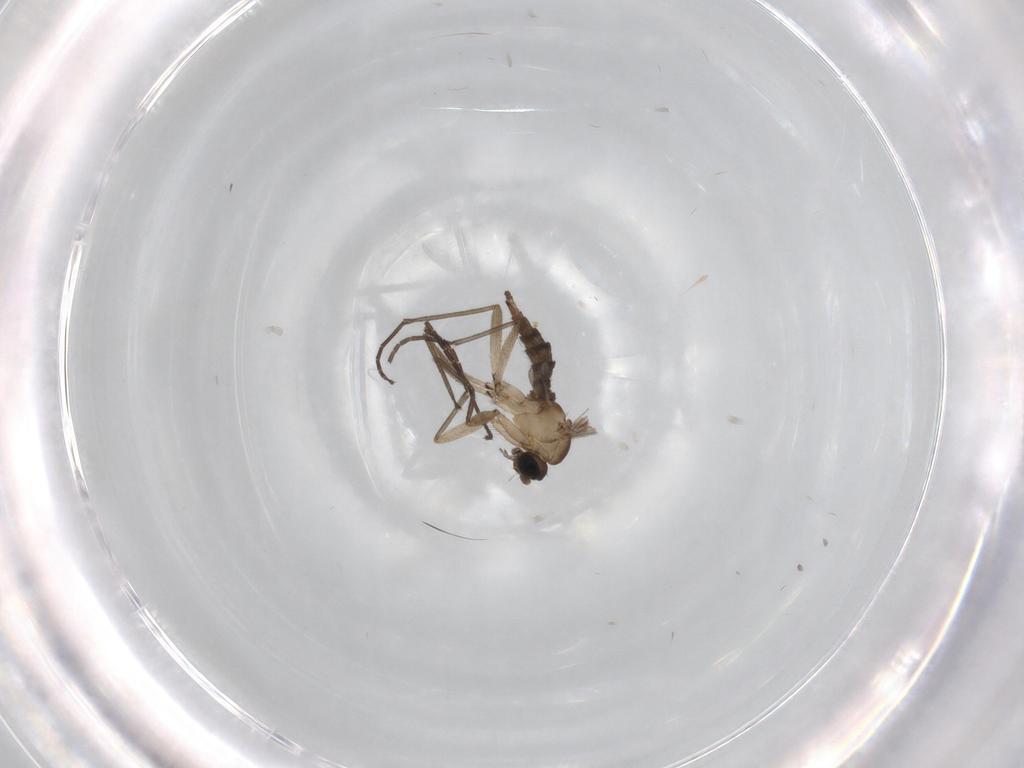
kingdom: Animalia
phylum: Arthropoda
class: Insecta
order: Diptera
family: Sciaridae
